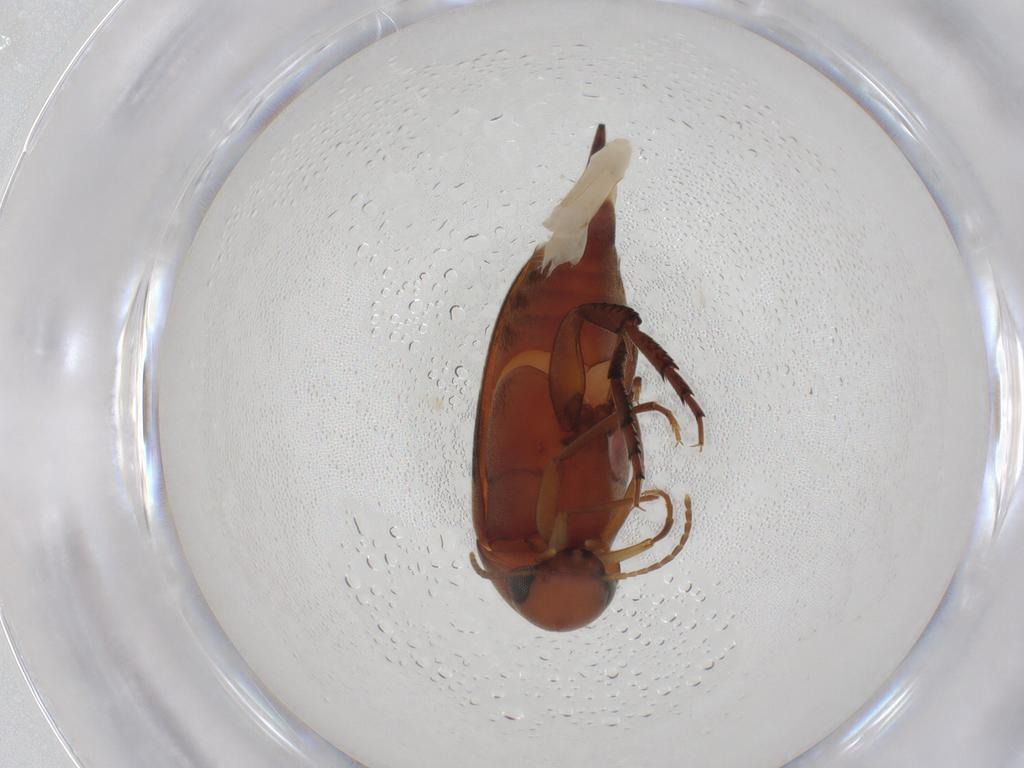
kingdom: Animalia
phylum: Arthropoda
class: Insecta
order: Coleoptera
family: Mordellidae
